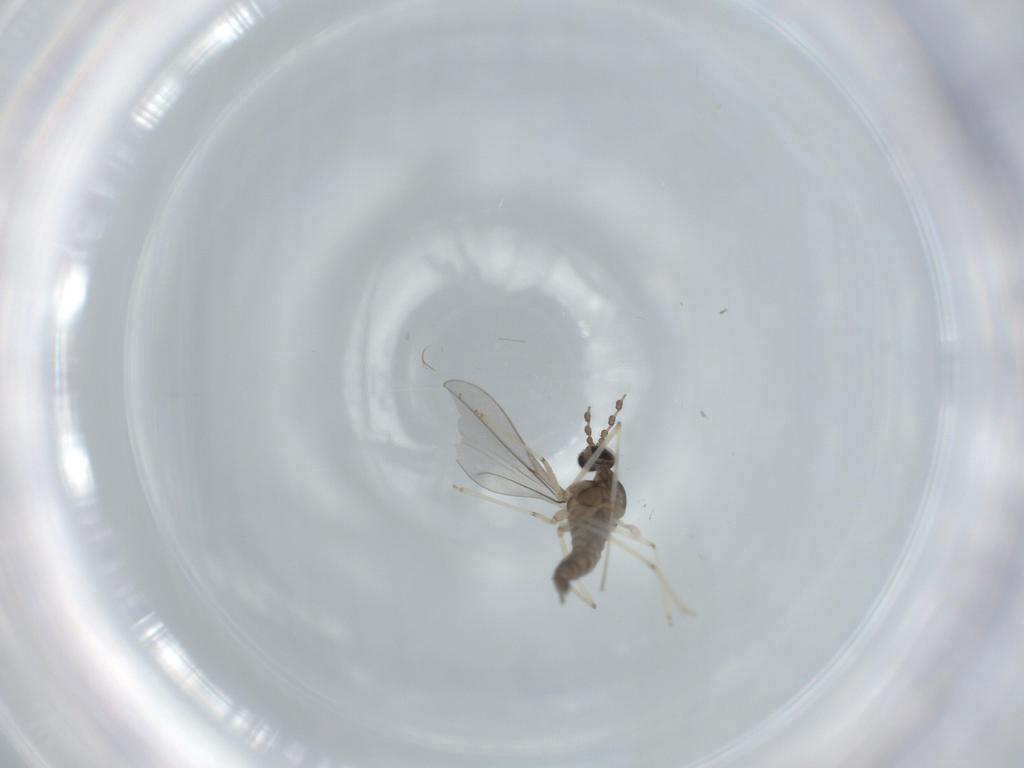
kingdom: Animalia
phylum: Arthropoda
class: Insecta
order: Diptera
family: Cecidomyiidae
